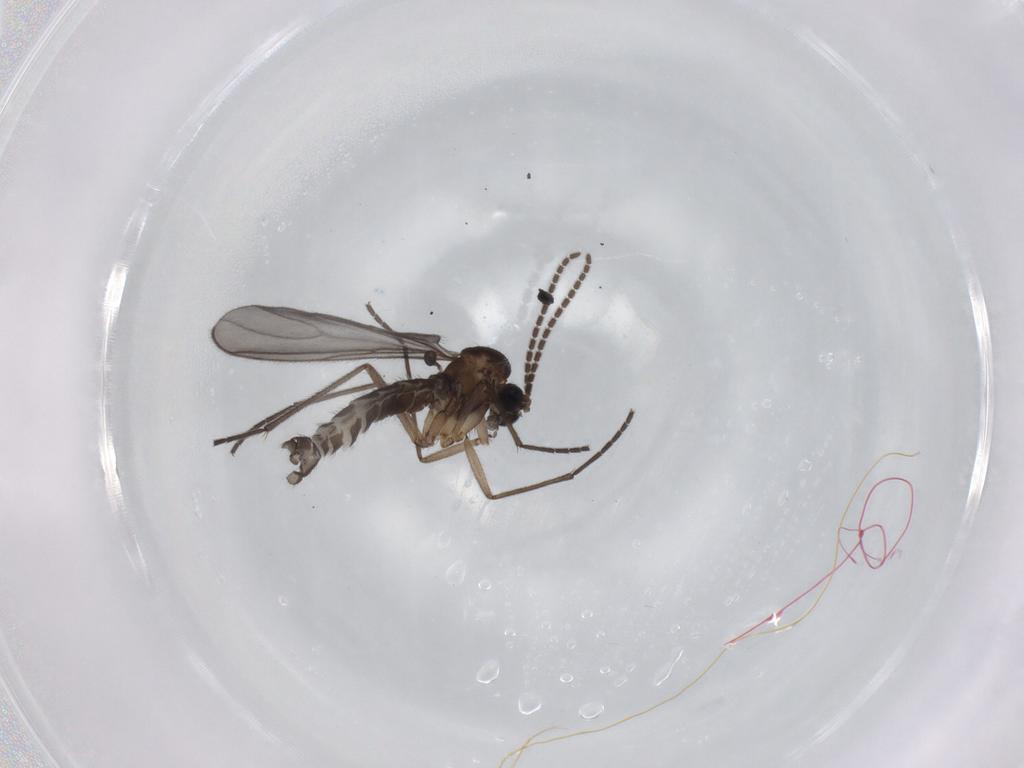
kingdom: Animalia
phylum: Arthropoda
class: Insecta
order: Diptera
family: Sciaridae
